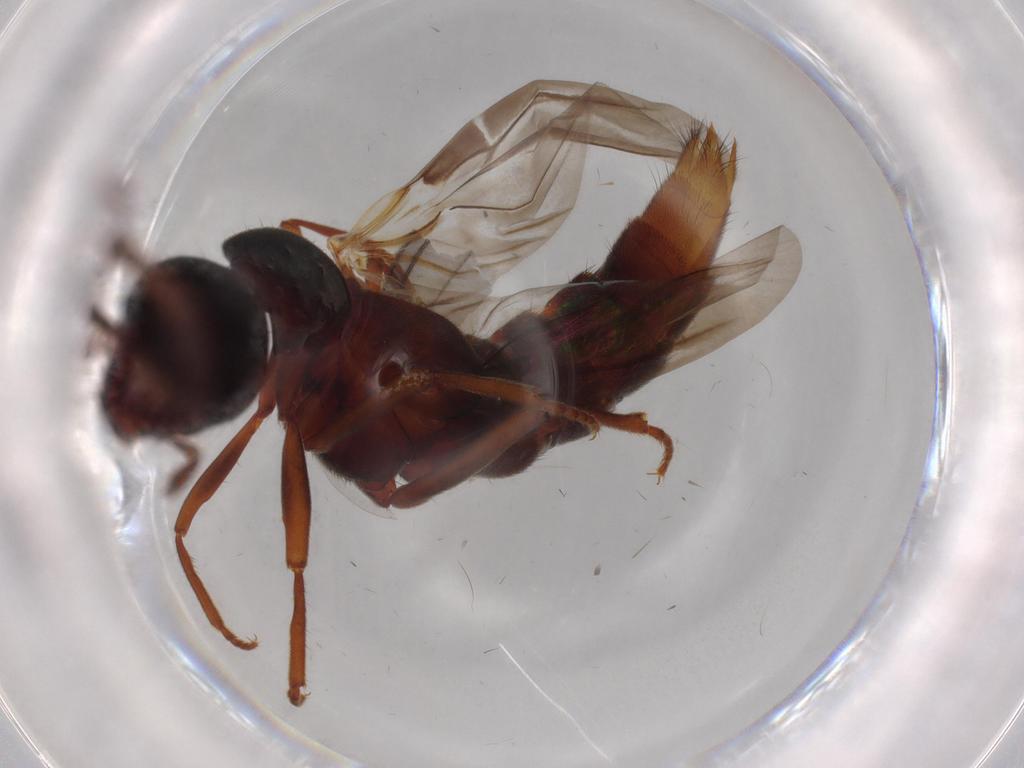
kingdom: Animalia
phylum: Arthropoda
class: Insecta
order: Coleoptera
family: Staphylinidae
